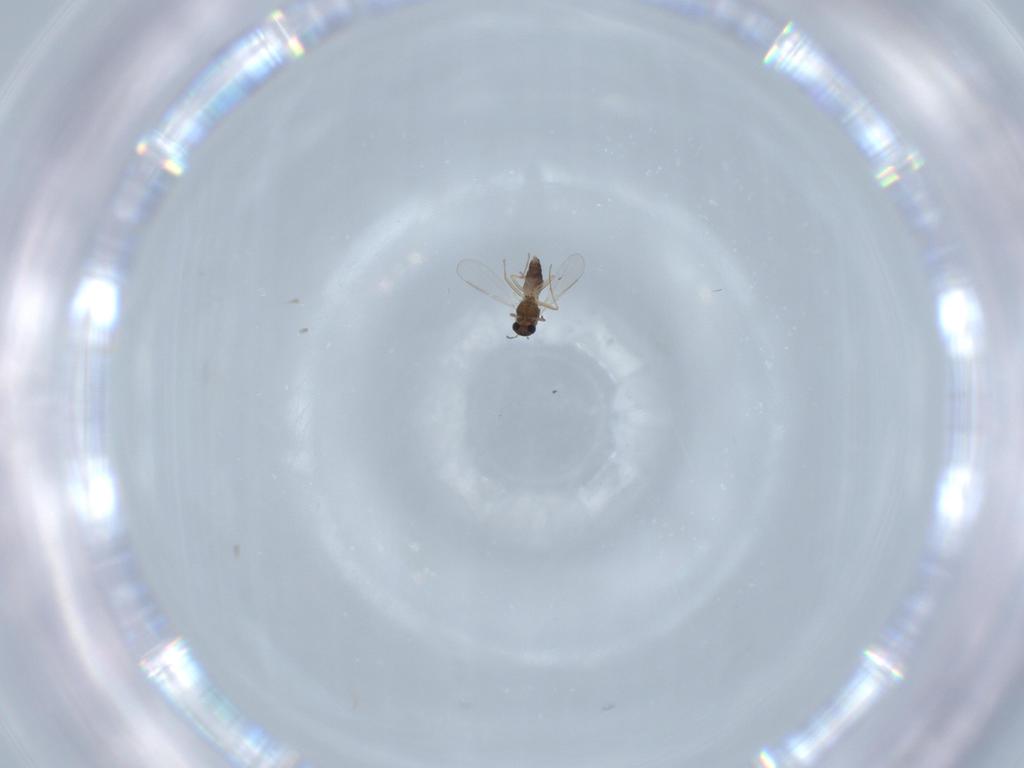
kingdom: Animalia
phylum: Arthropoda
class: Insecta
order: Diptera
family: Chironomidae
